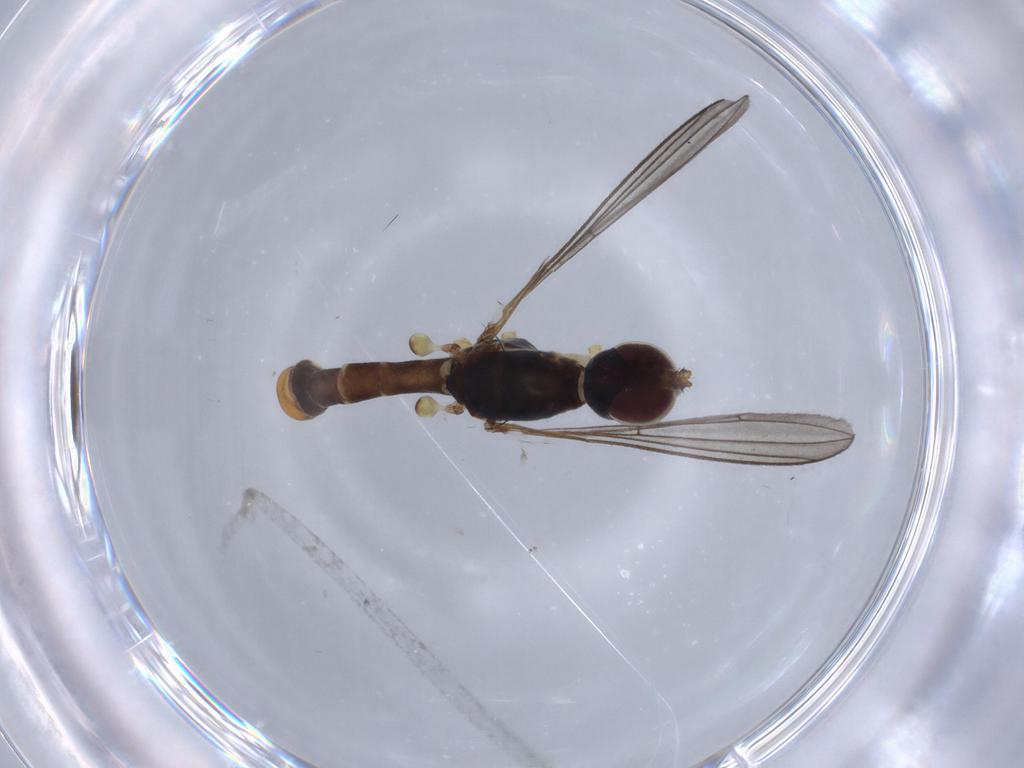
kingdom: Animalia
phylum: Arthropoda
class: Insecta
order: Diptera
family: Micropezidae
